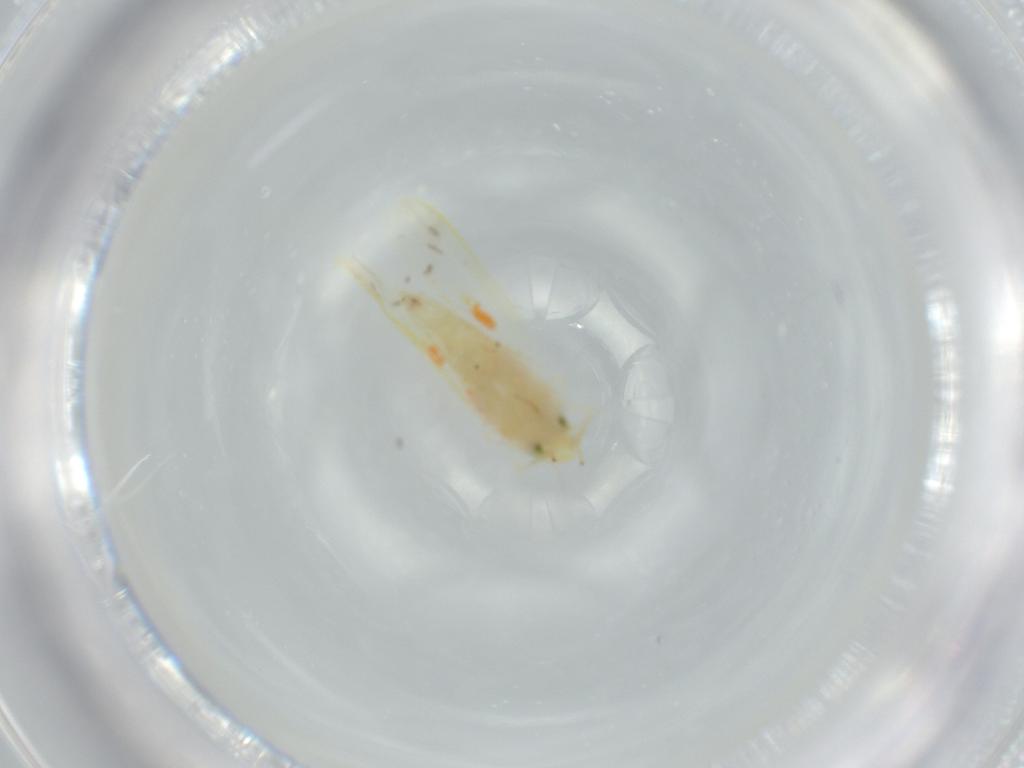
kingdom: Animalia
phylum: Arthropoda
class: Insecta
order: Hemiptera
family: Cicadellidae
